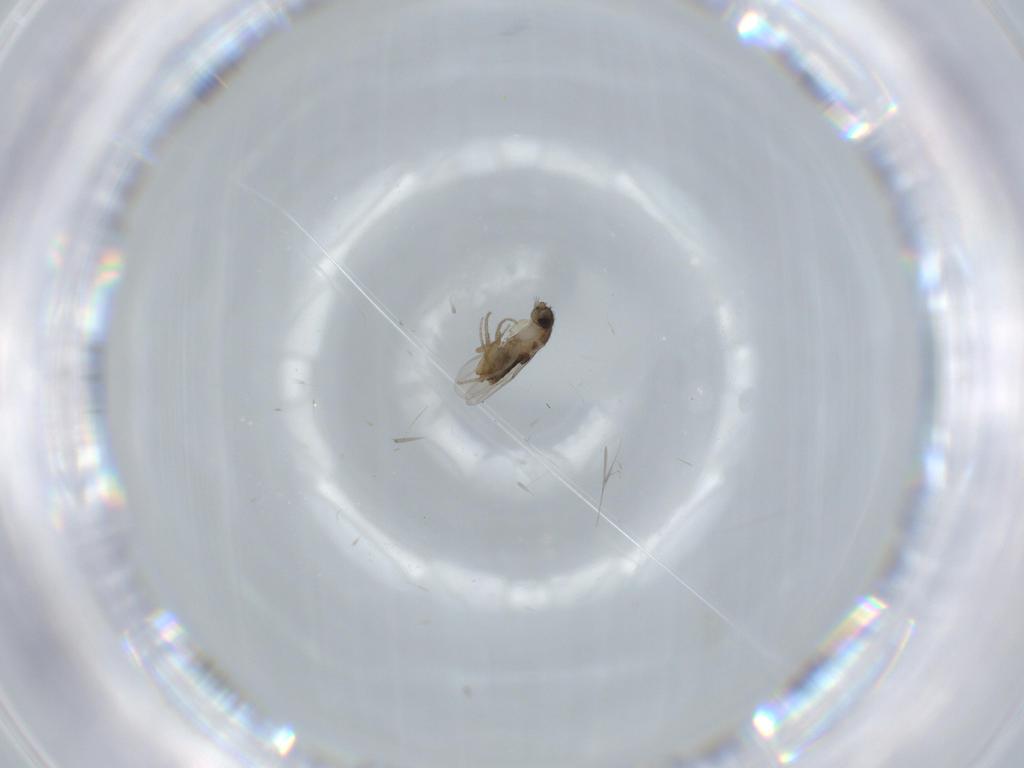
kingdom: Animalia
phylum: Arthropoda
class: Insecta
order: Diptera
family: Phoridae
